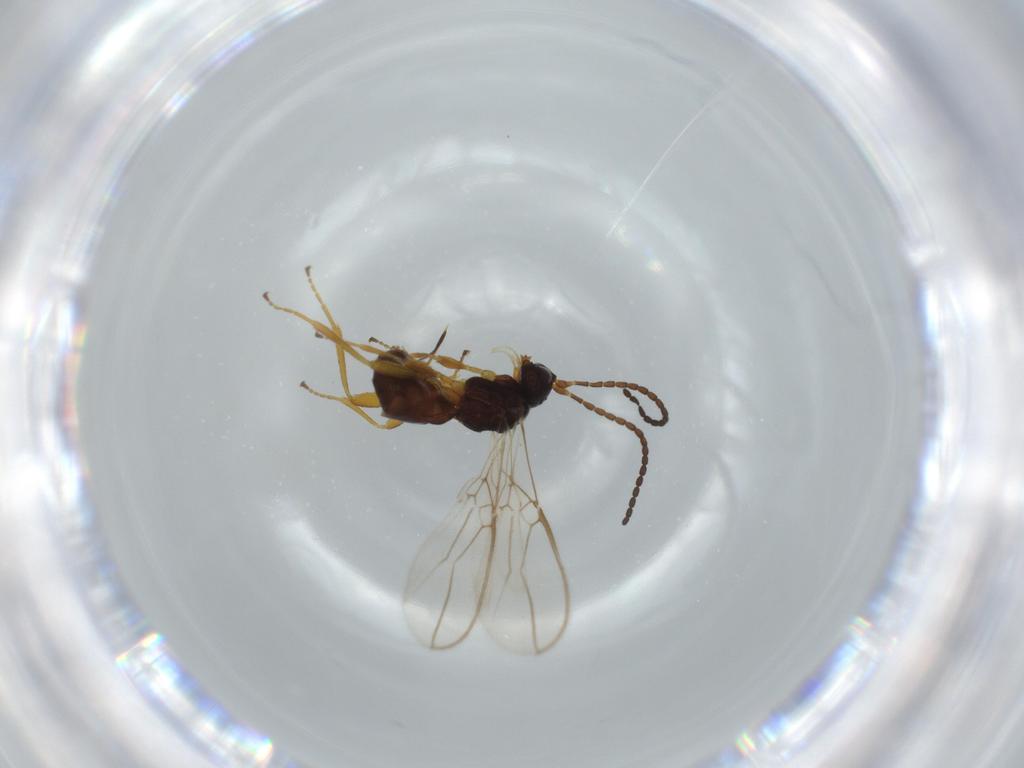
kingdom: Animalia
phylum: Arthropoda
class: Insecta
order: Hymenoptera
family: Braconidae
